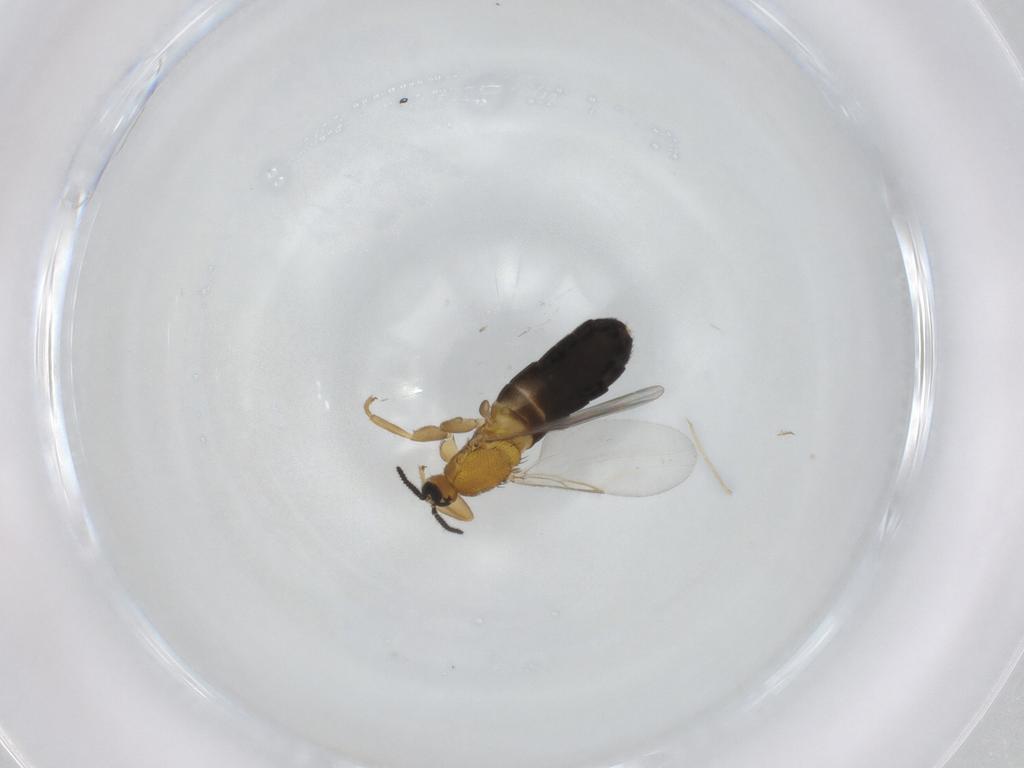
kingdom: Animalia
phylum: Arthropoda
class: Insecta
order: Diptera
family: Scatopsidae
